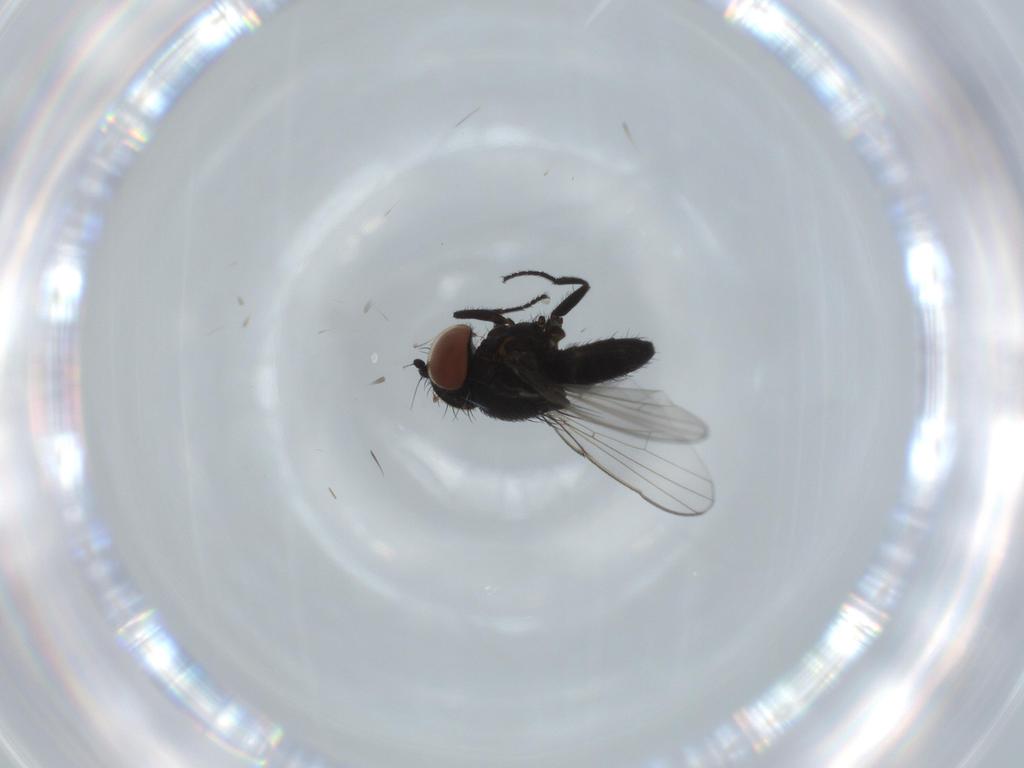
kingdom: Animalia
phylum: Arthropoda
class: Insecta
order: Diptera
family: Milichiidae
